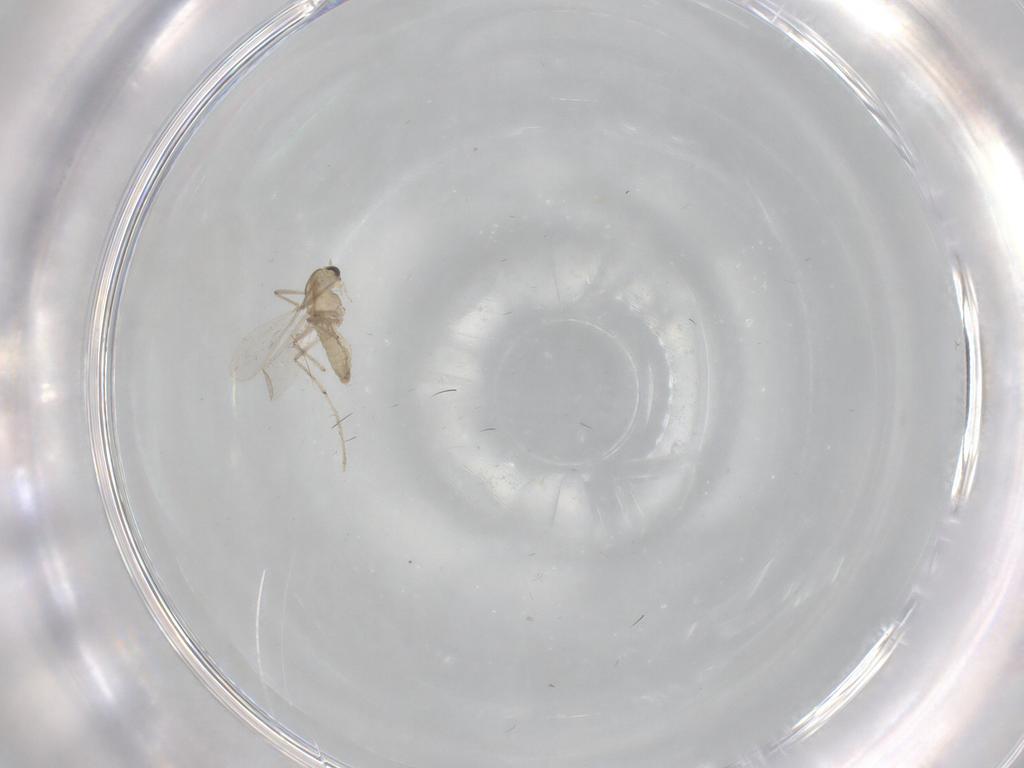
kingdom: Animalia
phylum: Arthropoda
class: Insecta
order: Diptera
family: Chironomidae
